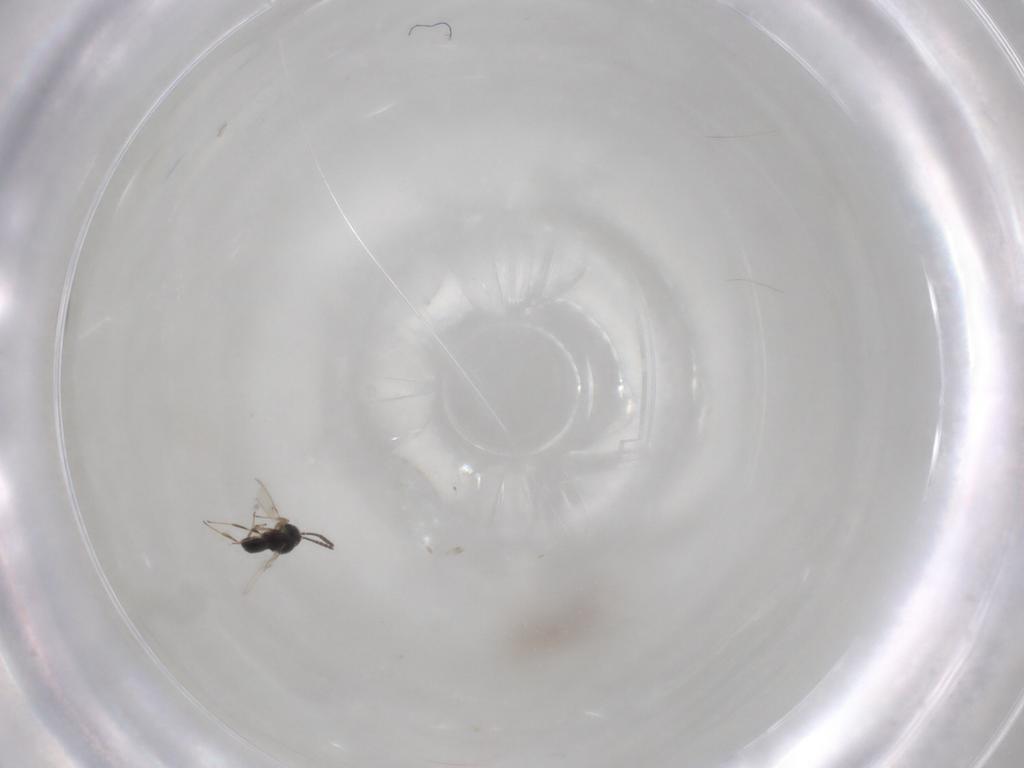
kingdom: Animalia
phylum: Arthropoda
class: Insecta
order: Hymenoptera
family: Scelionidae
